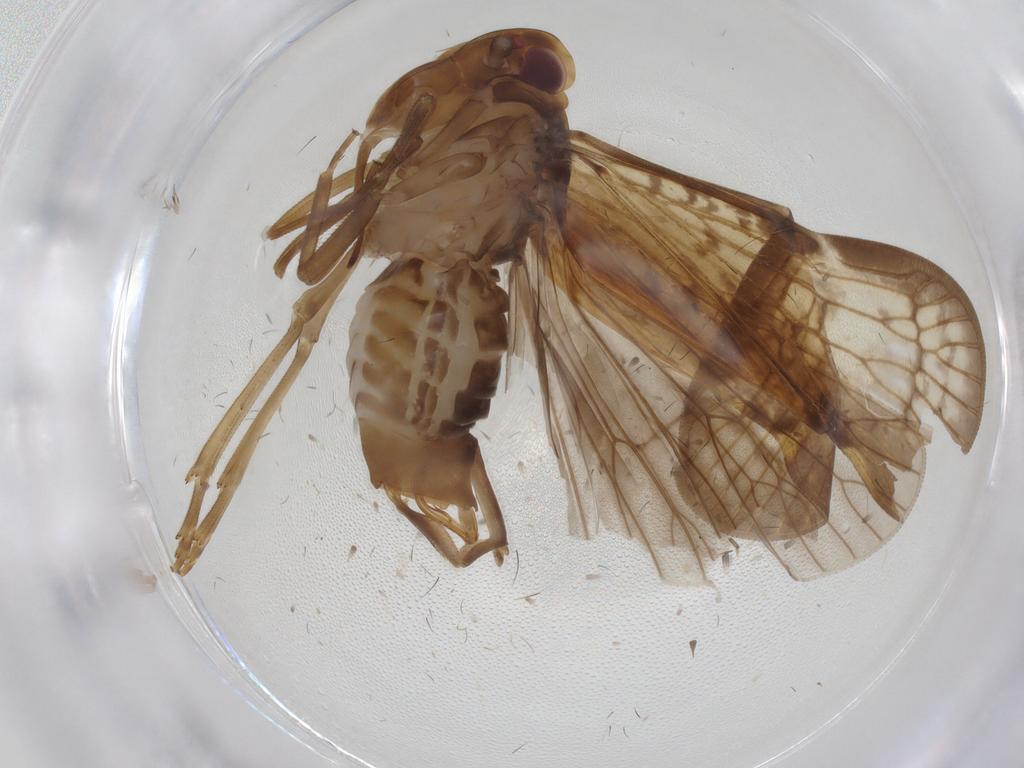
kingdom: Animalia
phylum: Arthropoda
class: Insecta
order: Hemiptera
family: Cixiidae
